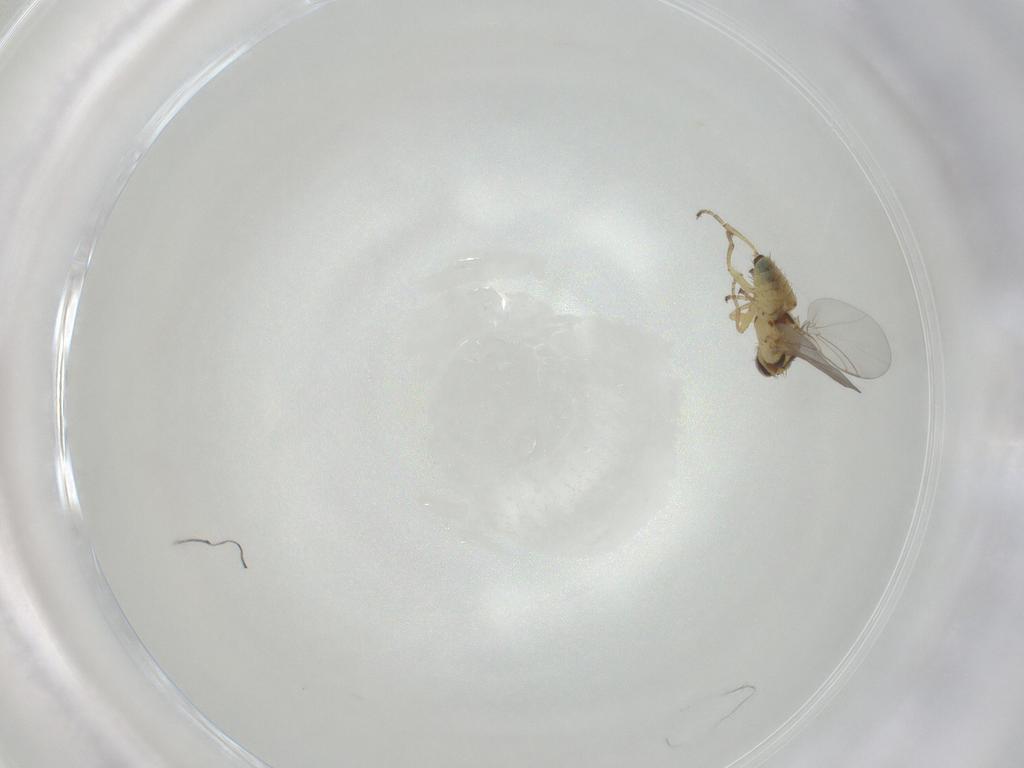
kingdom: Animalia
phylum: Arthropoda
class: Insecta
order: Diptera
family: Agromyzidae
